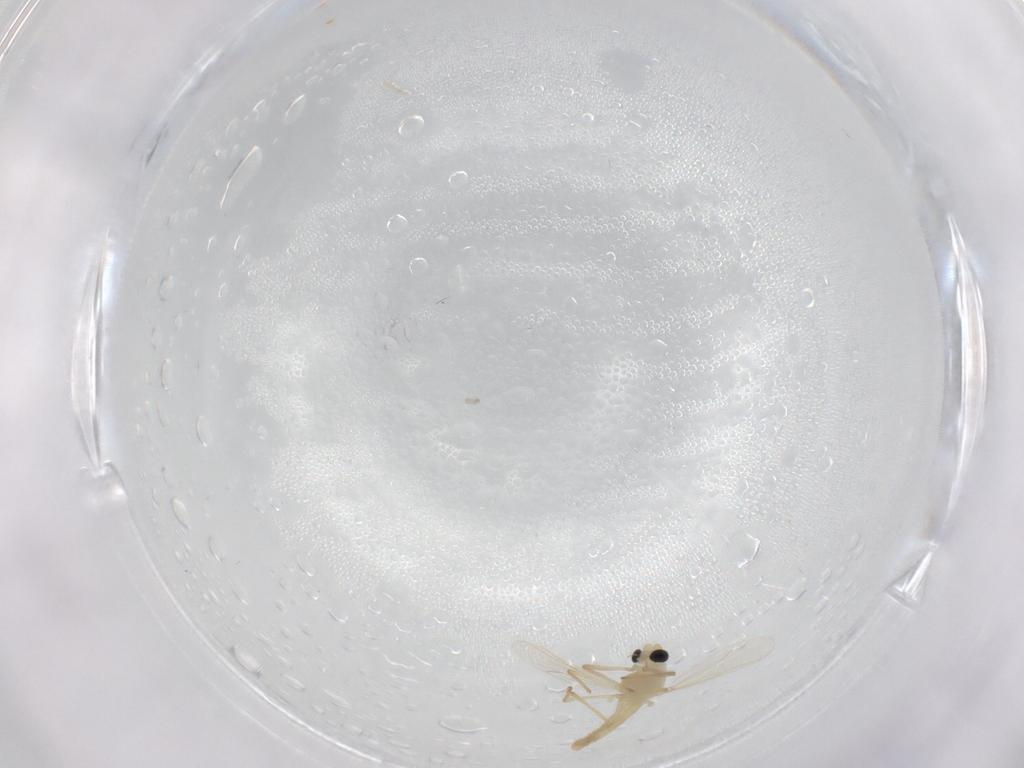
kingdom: Animalia
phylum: Arthropoda
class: Insecta
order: Diptera
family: Chironomidae
